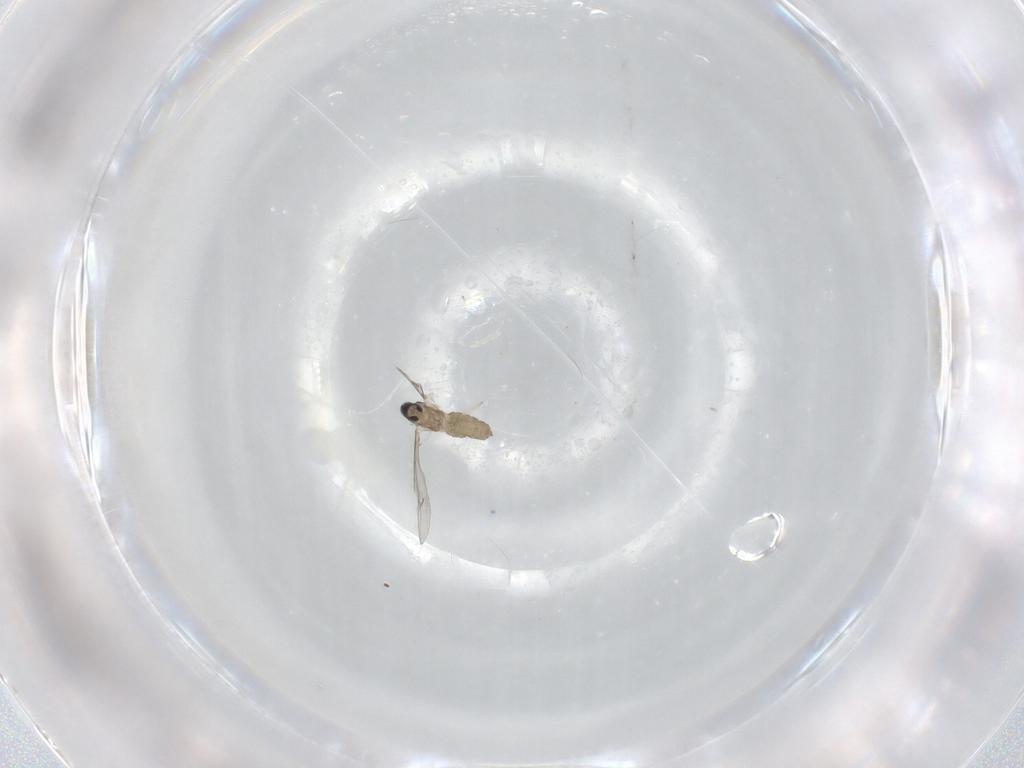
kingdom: Animalia
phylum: Arthropoda
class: Insecta
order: Diptera
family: Cecidomyiidae
